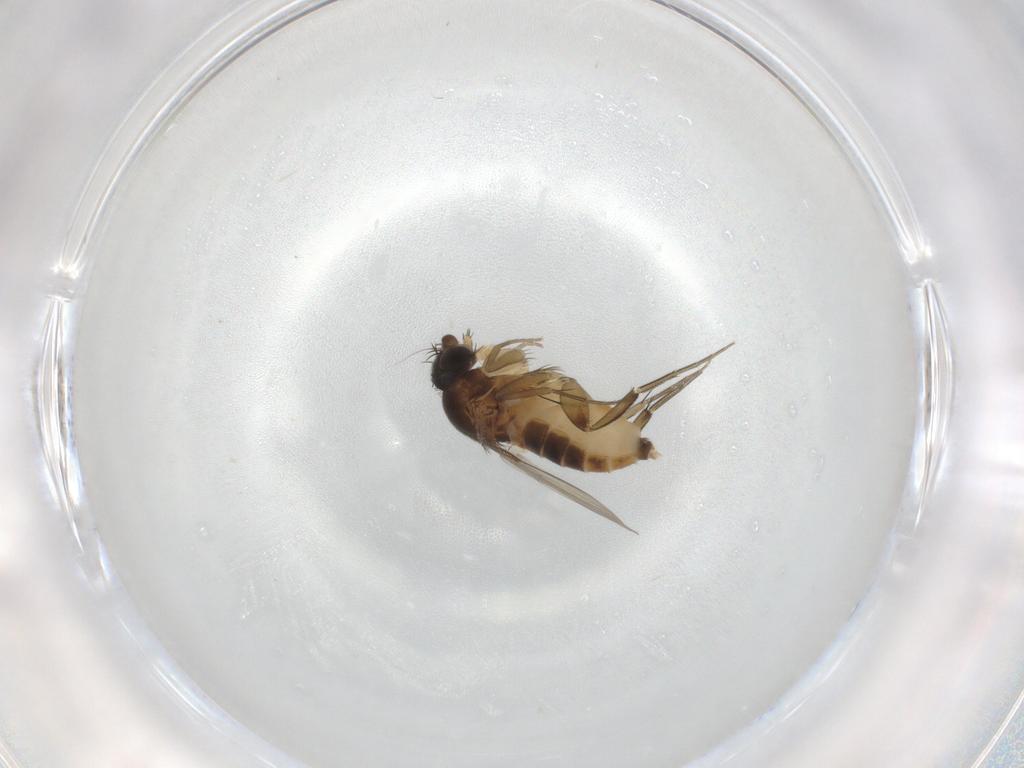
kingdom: Animalia
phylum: Arthropoda
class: Insecta
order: Diptera
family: Phoridae
